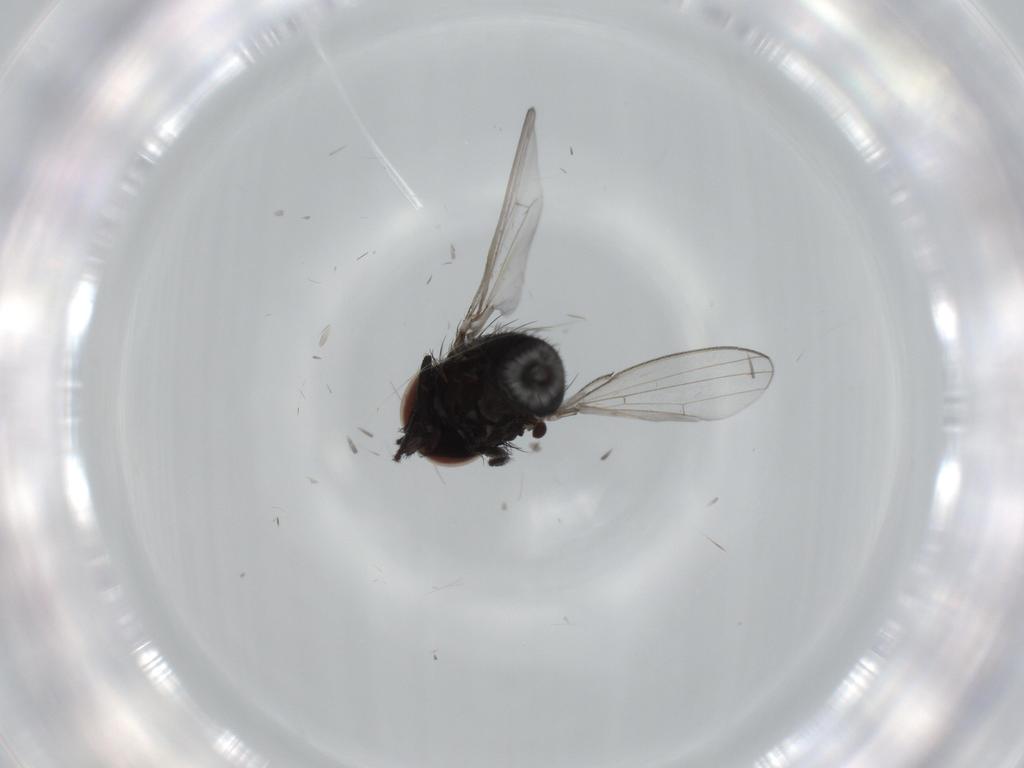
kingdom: Animalia
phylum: Arthropoda
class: Insecta
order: Diptera
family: Milichiidae
